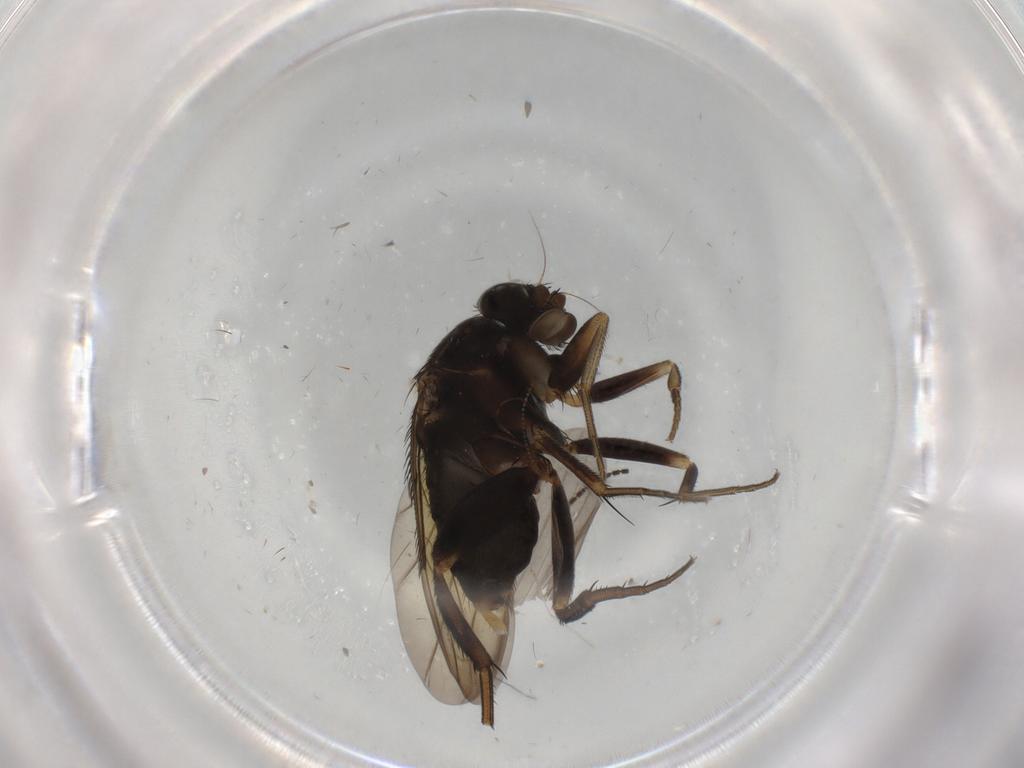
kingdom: Animalia
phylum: Arthropoda
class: Insecta
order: Diptera
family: Phoridae
